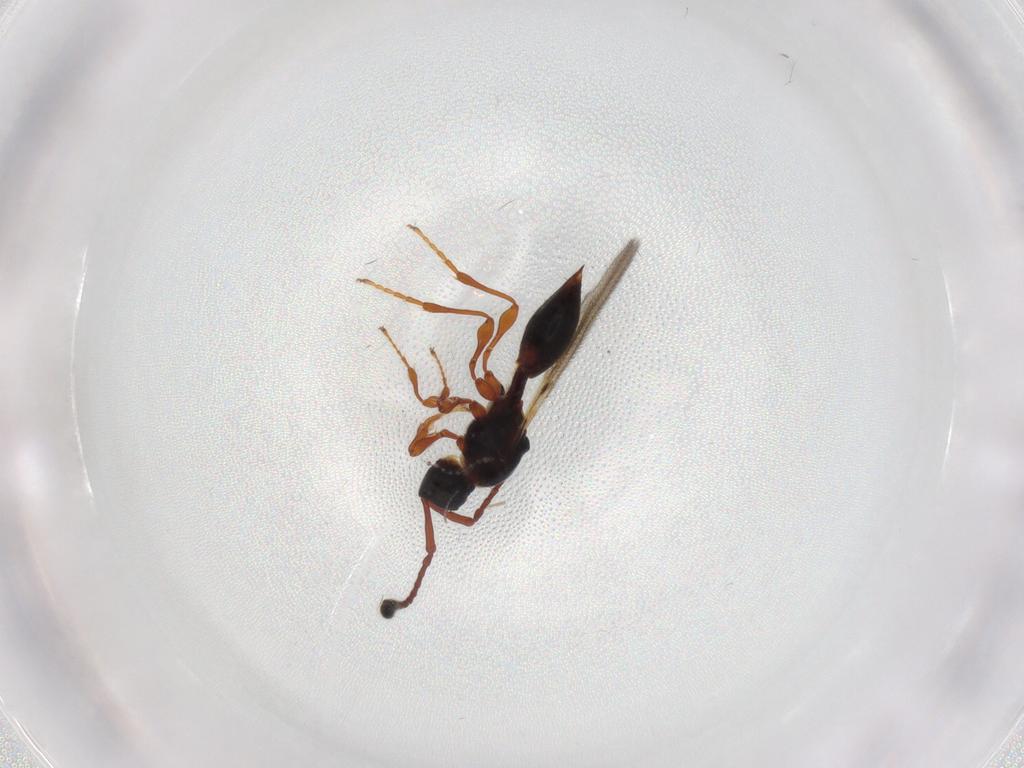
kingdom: Animalia
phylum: Arthropoda
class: Insecta
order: Hymenoptera
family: Diapriidae
